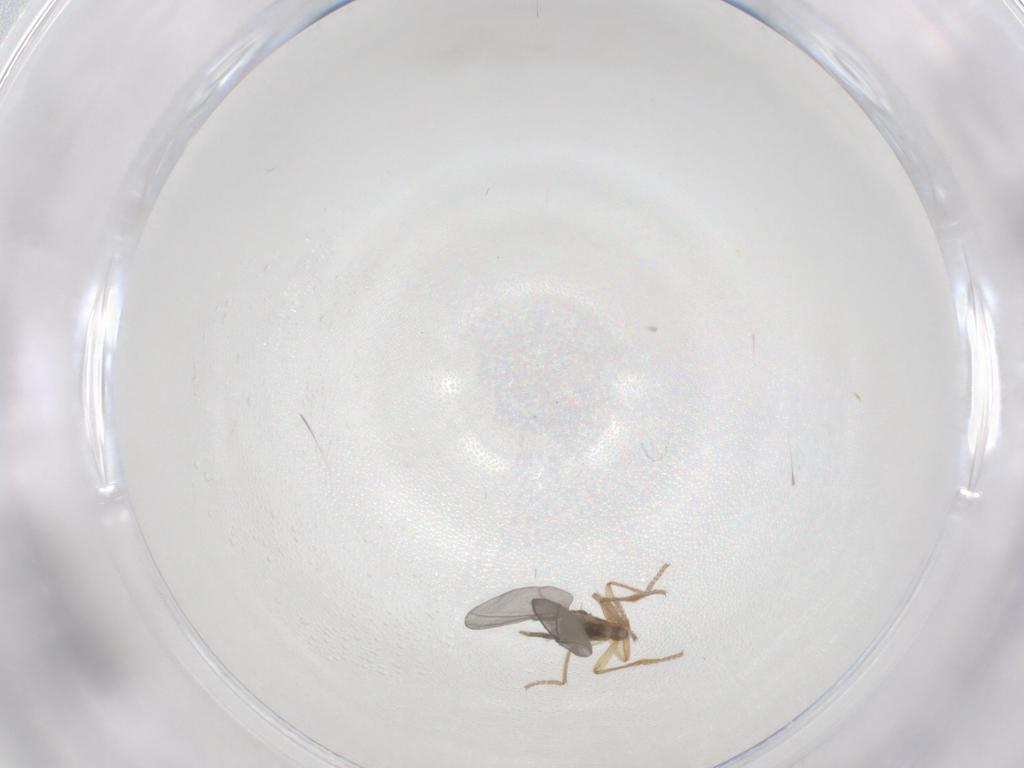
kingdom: Animalia
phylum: Arthropoda
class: Insecta
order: Diptera
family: Phoridae
